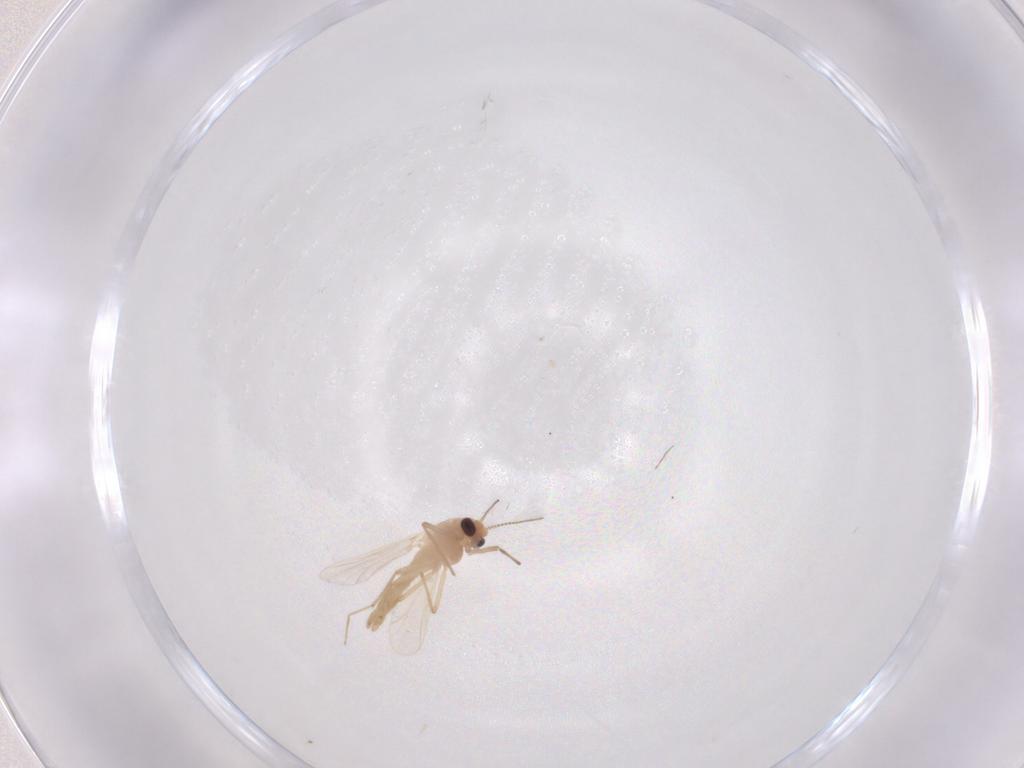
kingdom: Animalia
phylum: Arthropoda
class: Insecta
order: Diptera
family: Chironomidae
